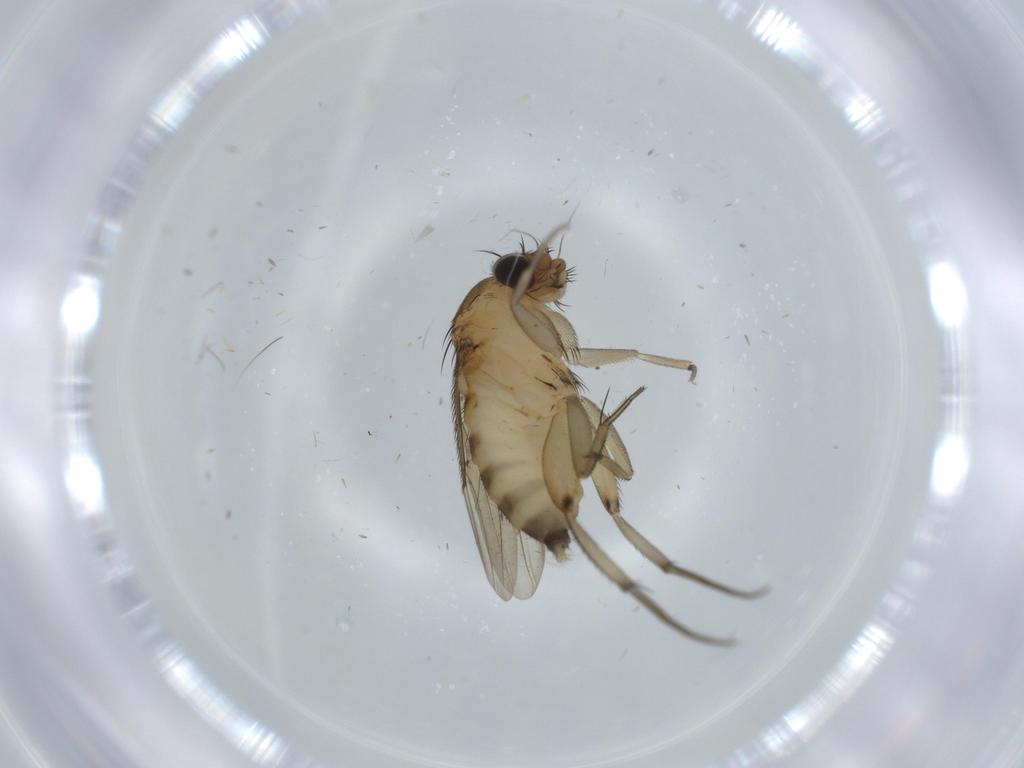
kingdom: Animalia
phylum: Arthropoda
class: Insecta
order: Diptera
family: Phoridae
